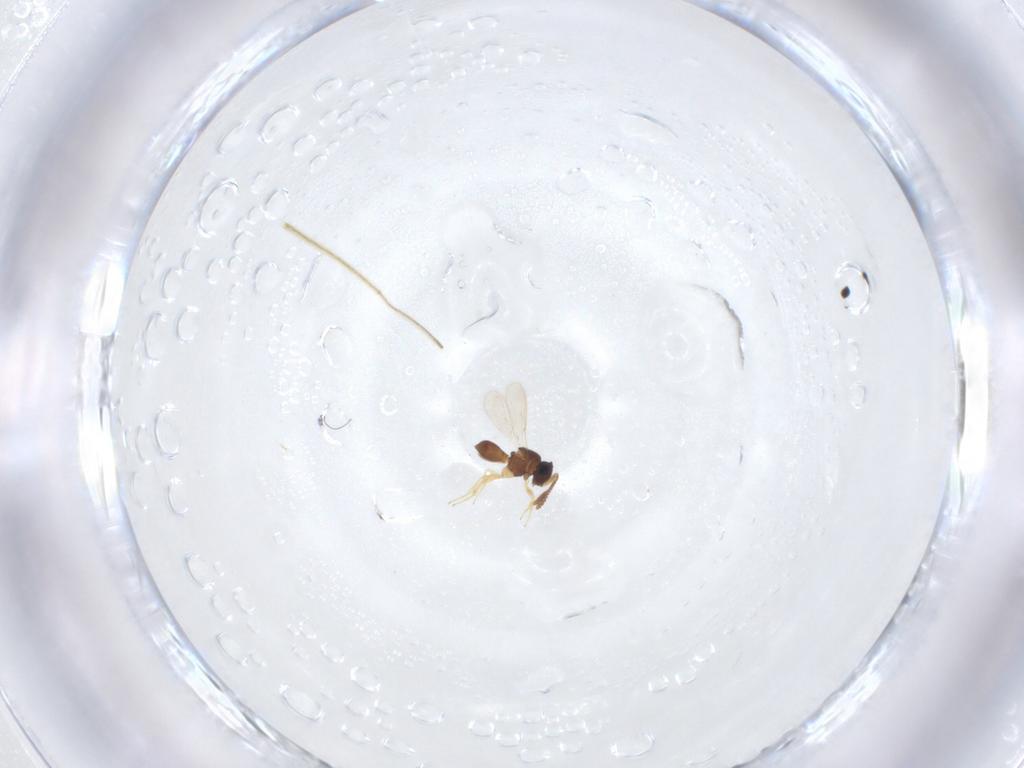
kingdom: Animalia
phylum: Arthropoda
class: Insecta
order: Hymenoptera
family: Scelionidae
